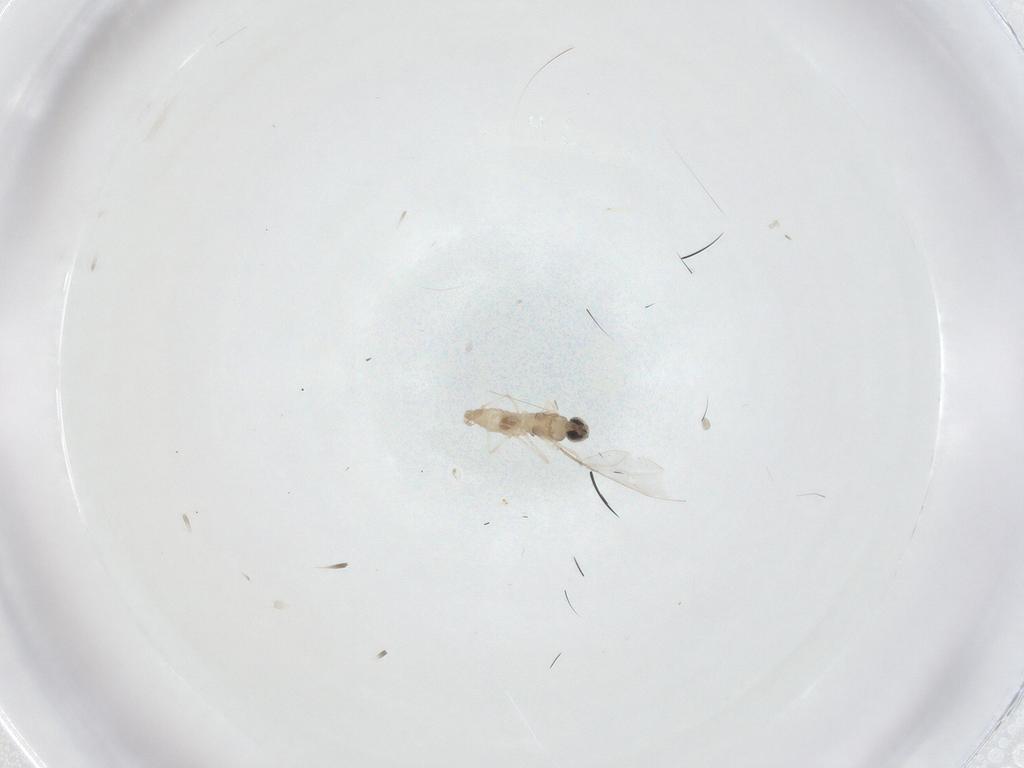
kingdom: Animalia
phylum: Arthropoda
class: Insecta
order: Diptera
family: Cecidomyiidae
